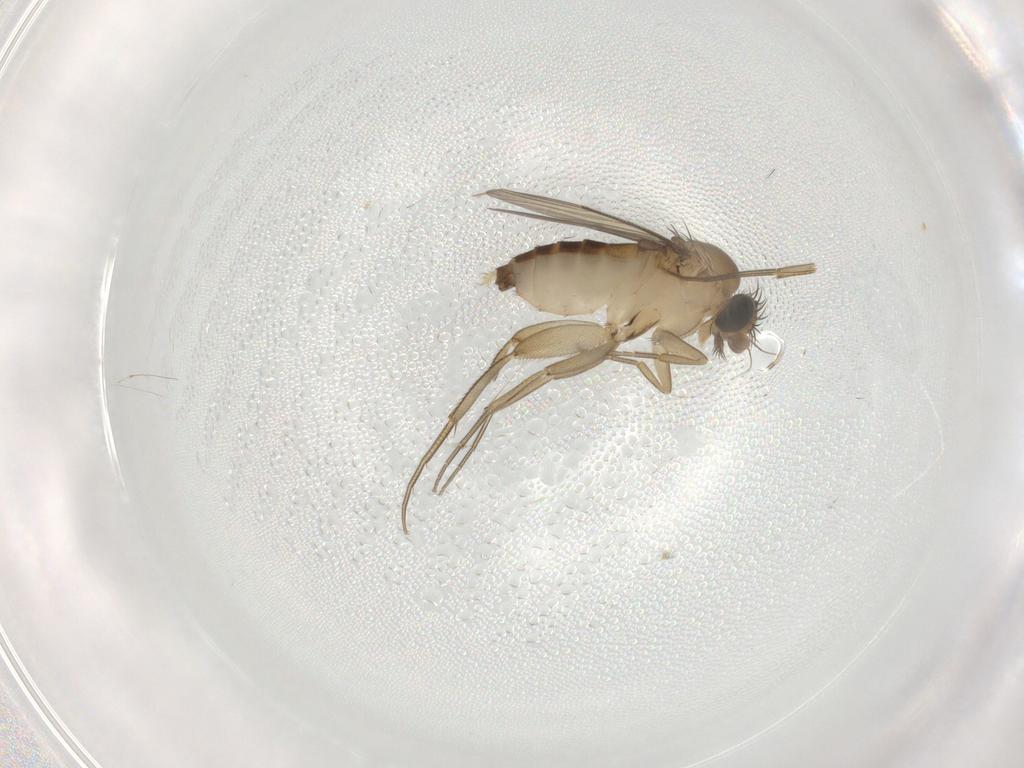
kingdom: Animalia
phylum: Arthropoda
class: Insecta
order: Diptera
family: Phoridae
